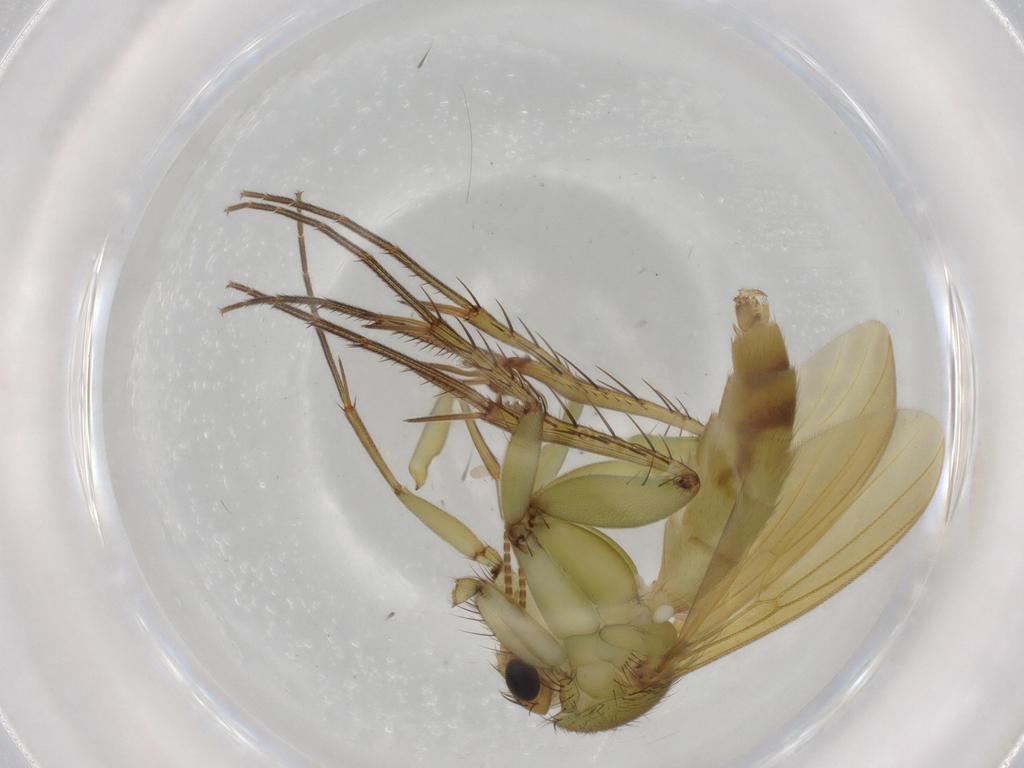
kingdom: Animalia
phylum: Arthropoda
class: Insecta
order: Diptera
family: Cecidomyiidae
